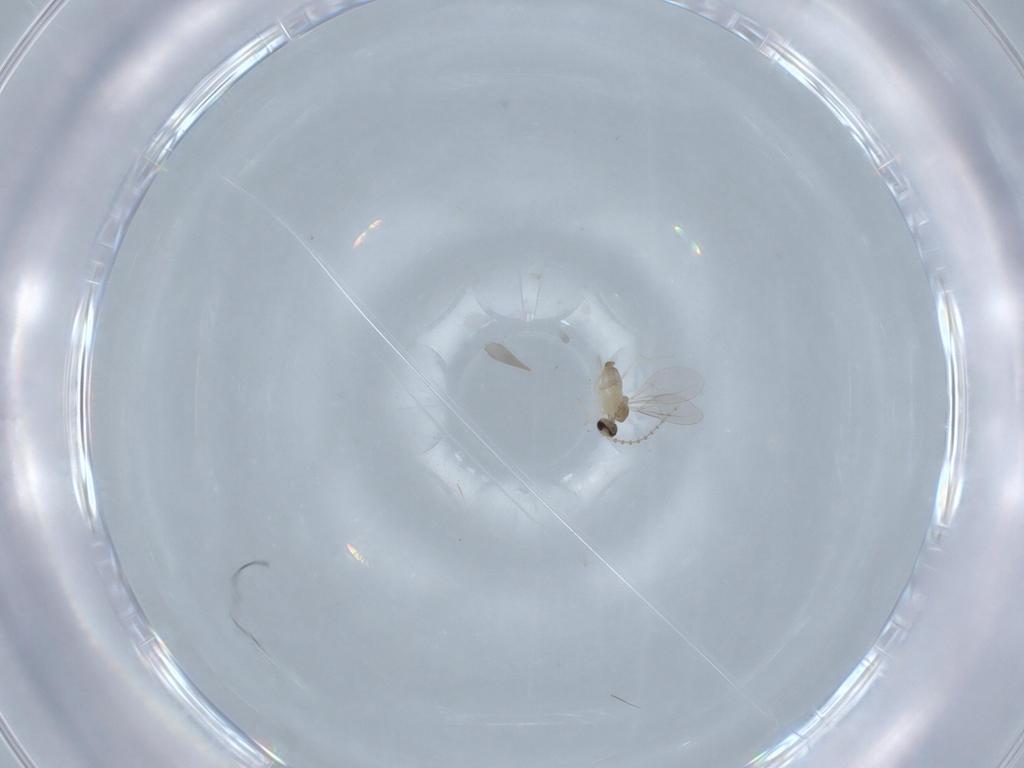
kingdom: Animalia
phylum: Arthropoda
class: Insecta
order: Diptera
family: Cecidomyiidae
